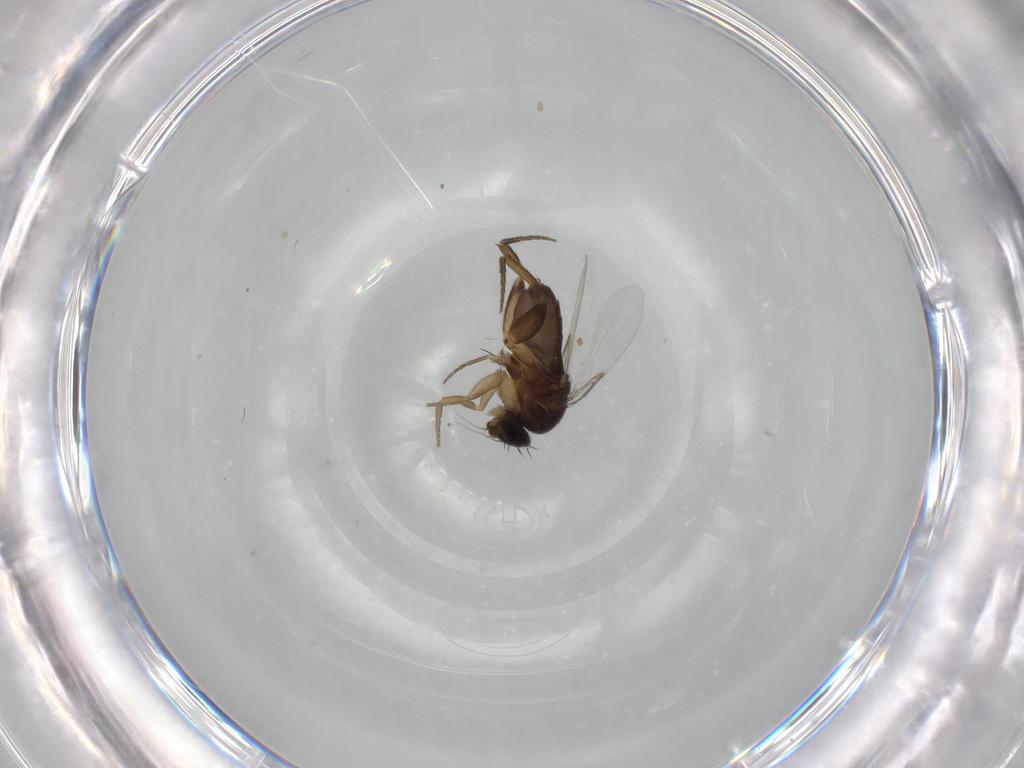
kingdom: Animalia
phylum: Arthropoda
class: Insecta
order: Diptera
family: Phoridae
